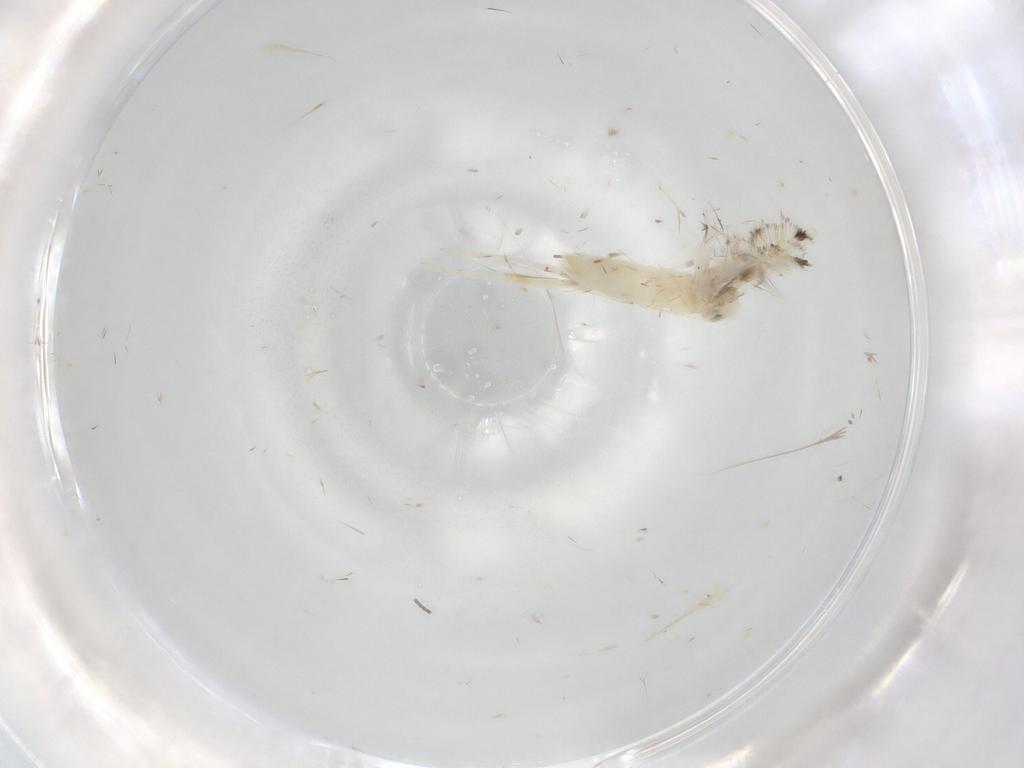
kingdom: Animalia
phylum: Arthropoda
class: Insecta
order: Lepidoptera
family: Gracillariidae
